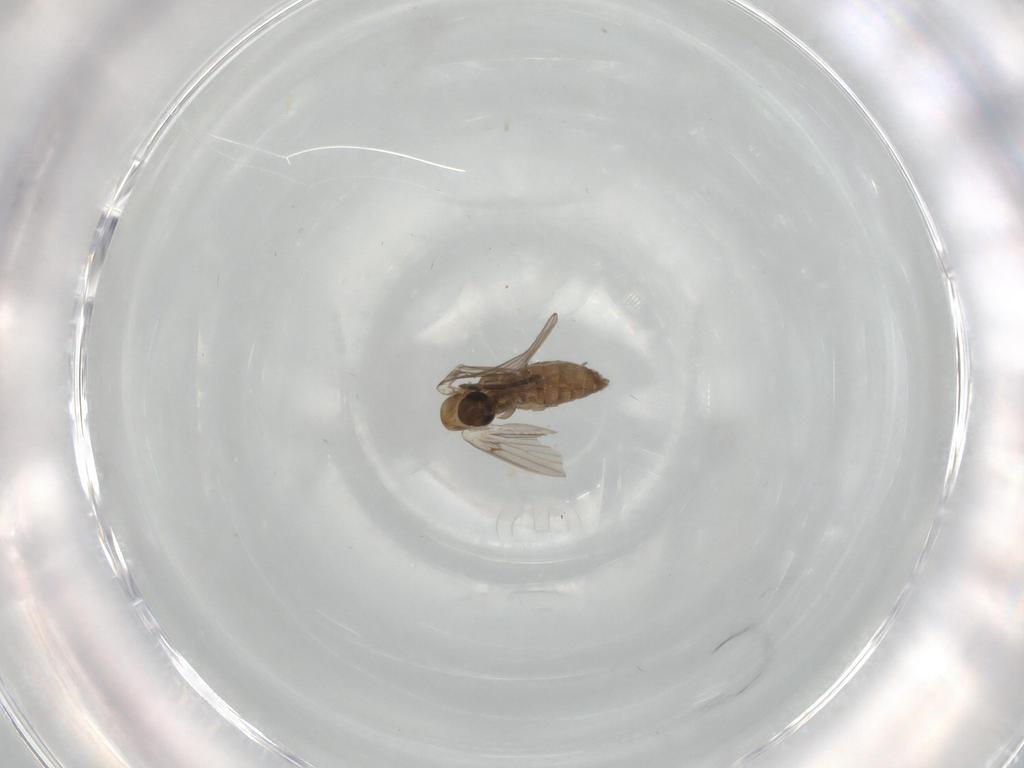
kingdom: Animalia
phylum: Arthropoda
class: Insecta
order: Diptera
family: Psychodidae
